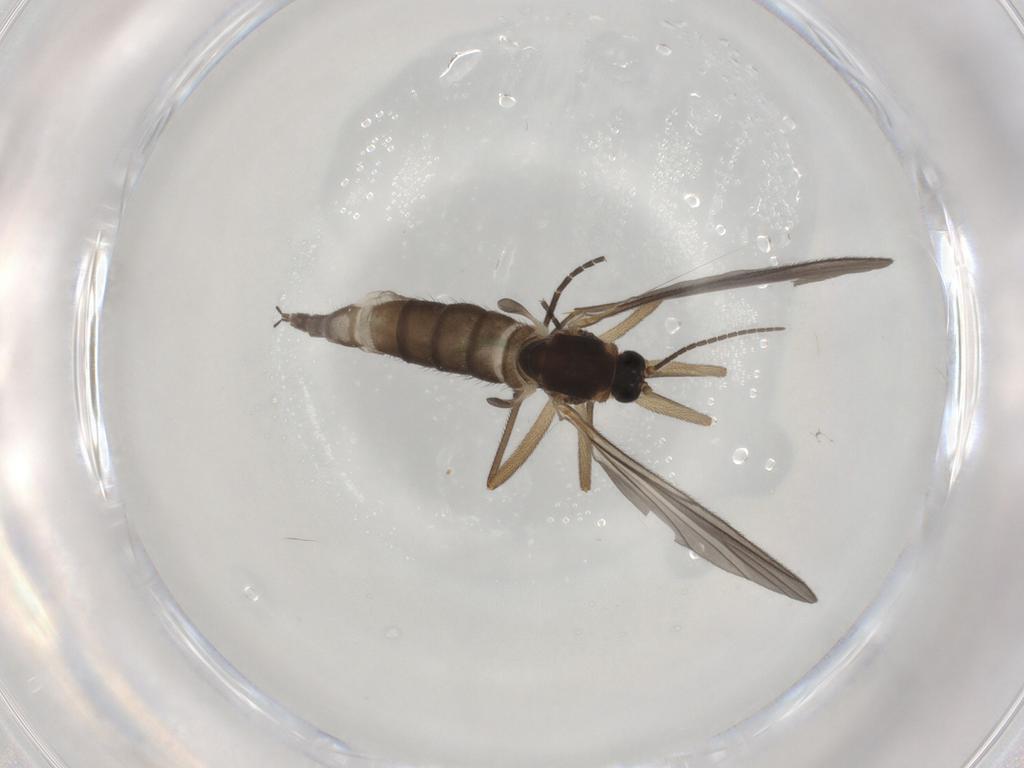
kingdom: Animalia
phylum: Arthropoda
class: Insecta
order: Diptera
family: Sciaridae
